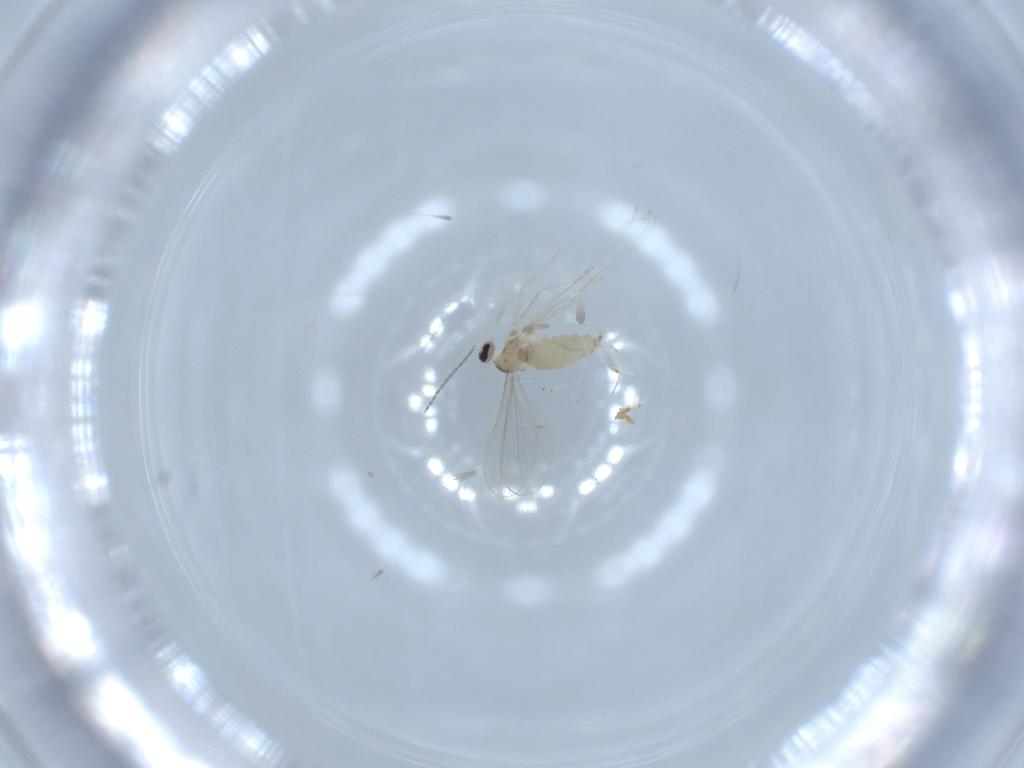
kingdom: Animalia
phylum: Arthropoda
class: Insecta
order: Diptera
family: Cecidomyiidae
